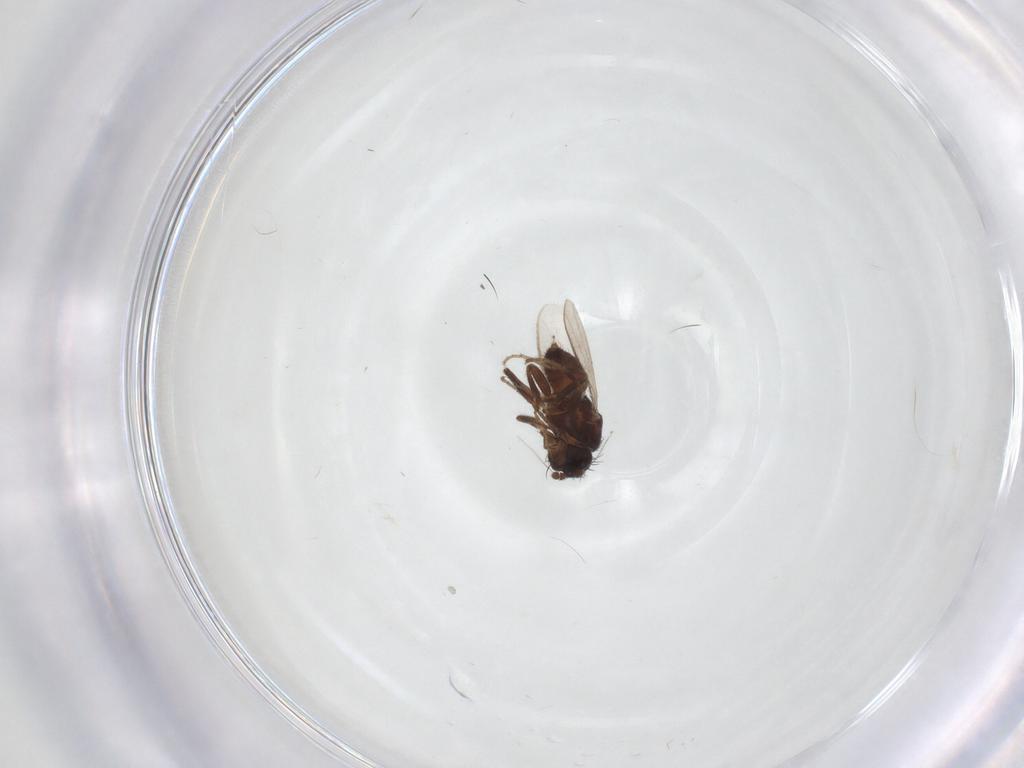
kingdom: Animalia
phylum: Arthropoda
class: Insecta
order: Diptera
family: Sphaeroceridae
